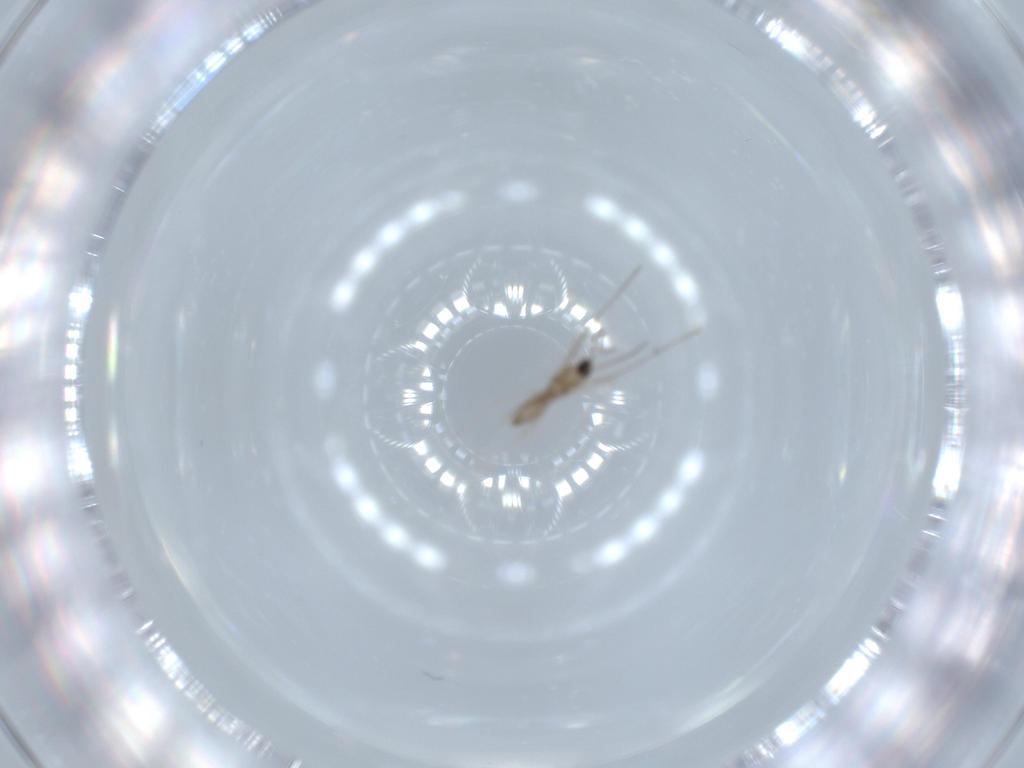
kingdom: Animalia
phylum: Arthropoda
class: Insecta
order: Diptera
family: Cecidomyiidae
